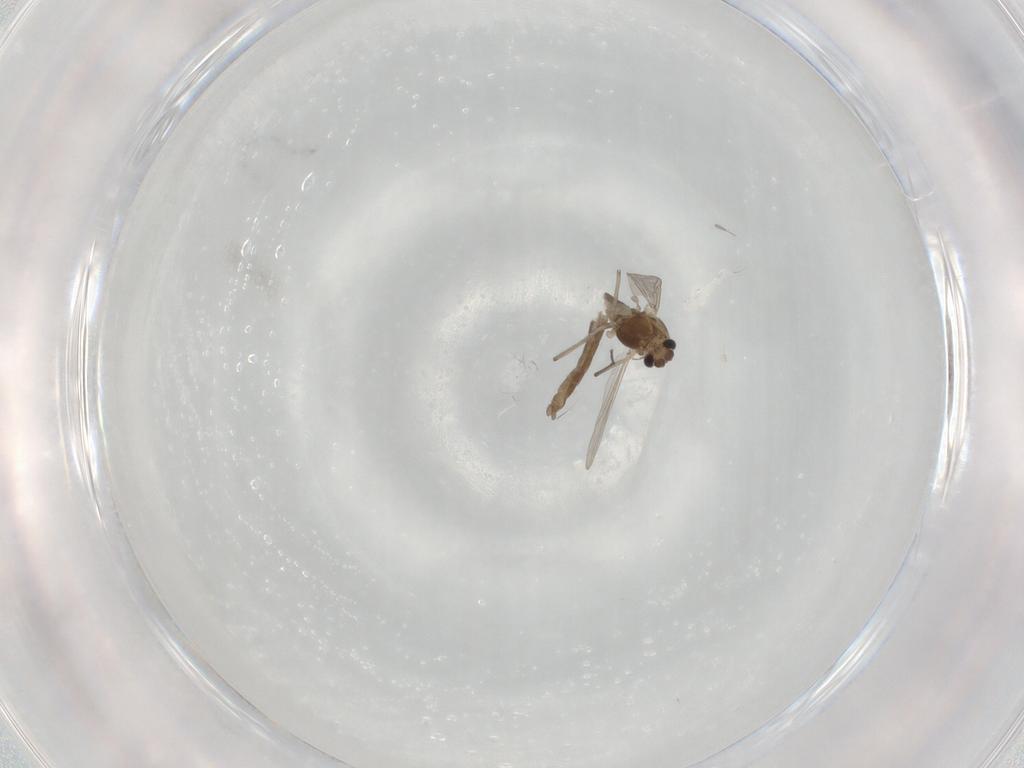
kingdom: Animalia
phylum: Arthropoda
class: Insecta
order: Diptera
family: Chironomidae
